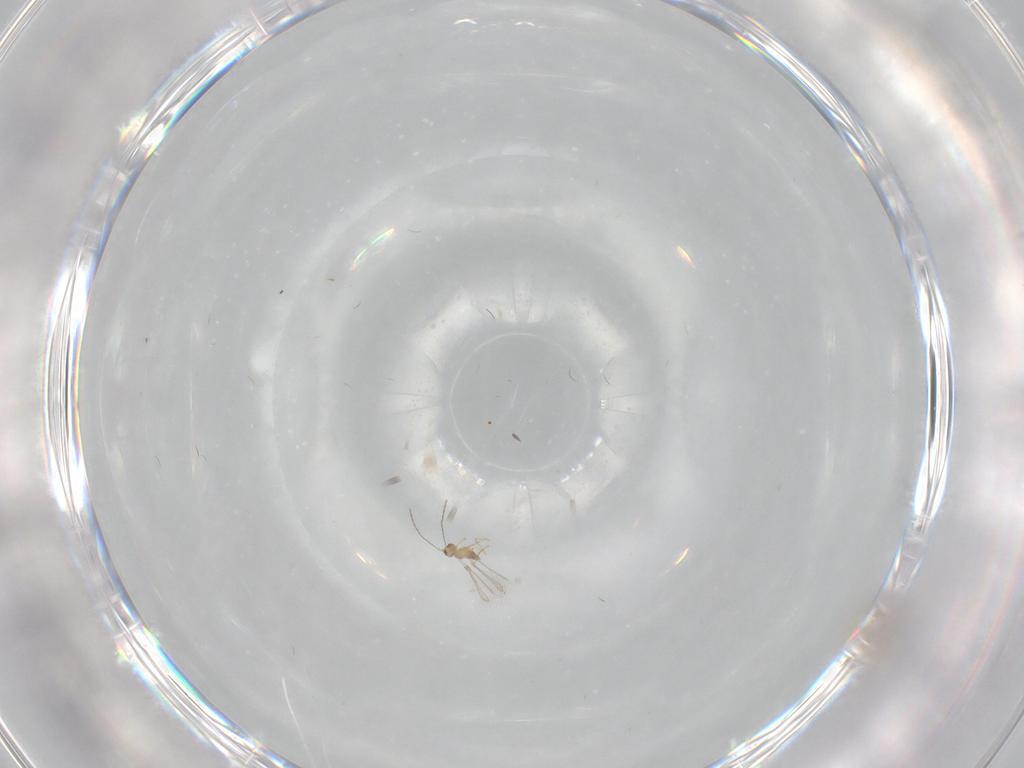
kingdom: Animalia
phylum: Arthropoda
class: Insecta
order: Diptera
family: Cecidomyiidae
